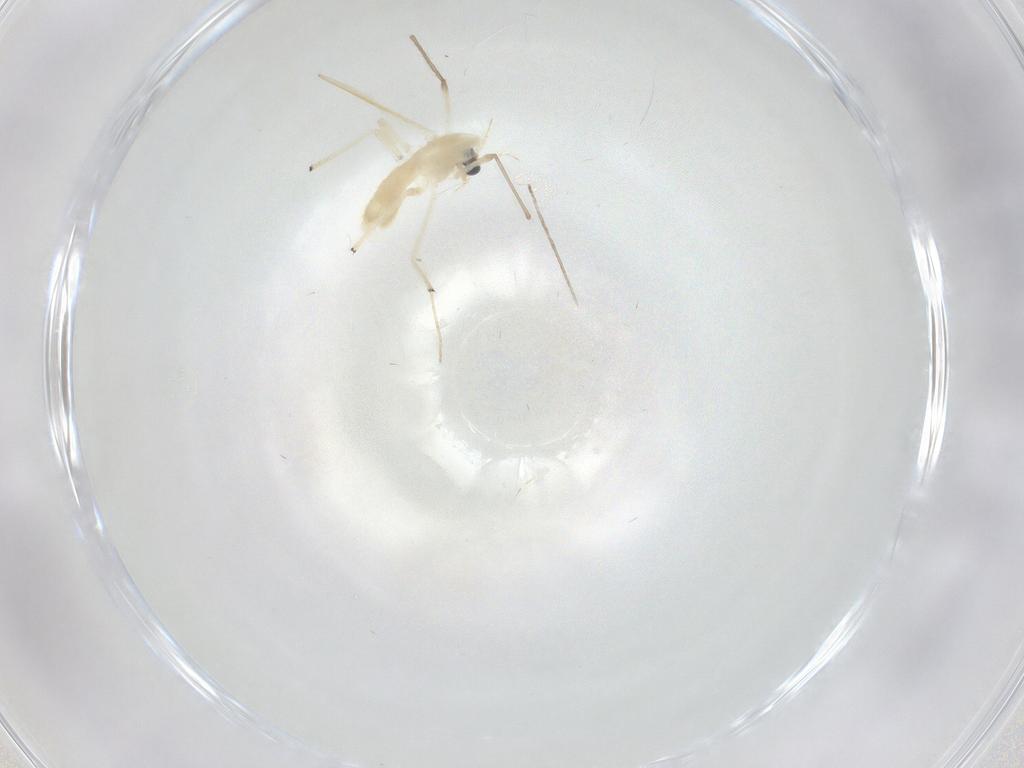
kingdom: Animalia
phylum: Arthropoda
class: Insecta
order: Diptera
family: Chironomidae
